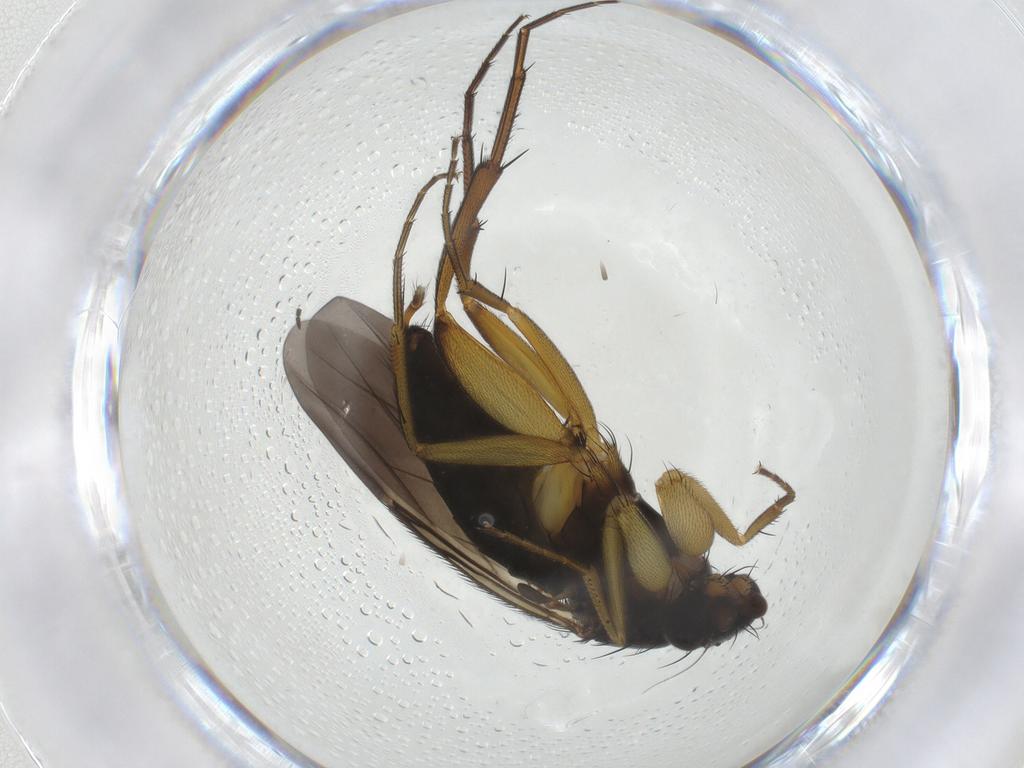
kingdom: Animalia
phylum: Arthropoda
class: Insecta
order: Diptera
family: Phoridae
